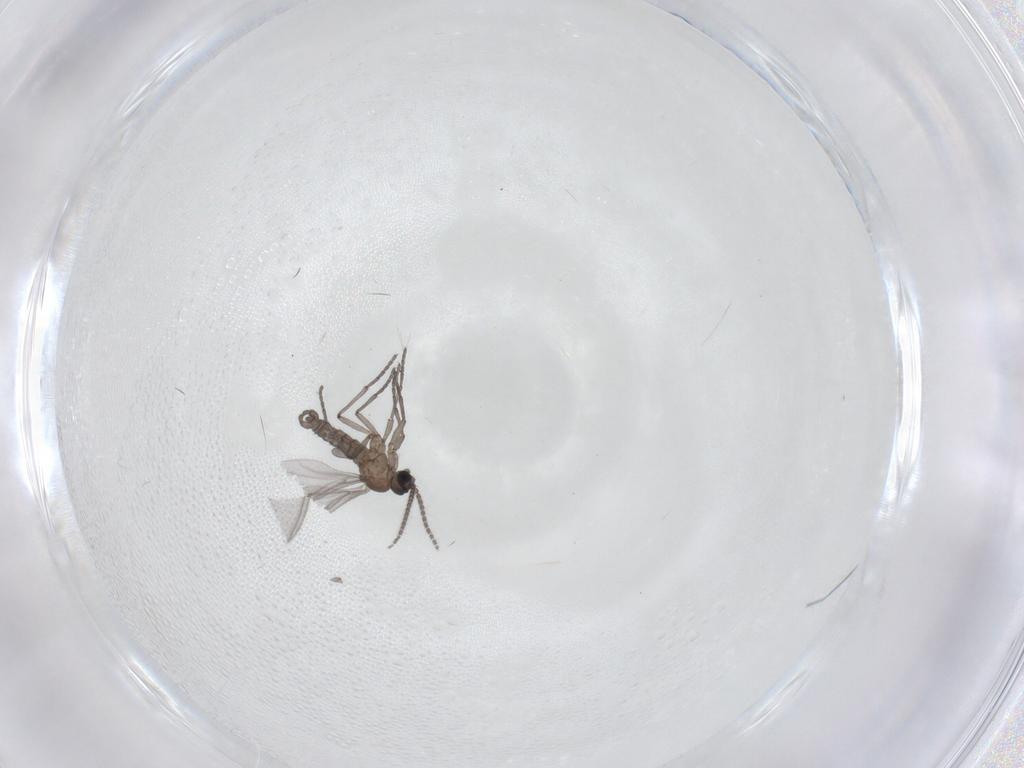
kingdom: Animalia
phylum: Arthropoda
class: Insecta
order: Diptera
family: Sciaridae
